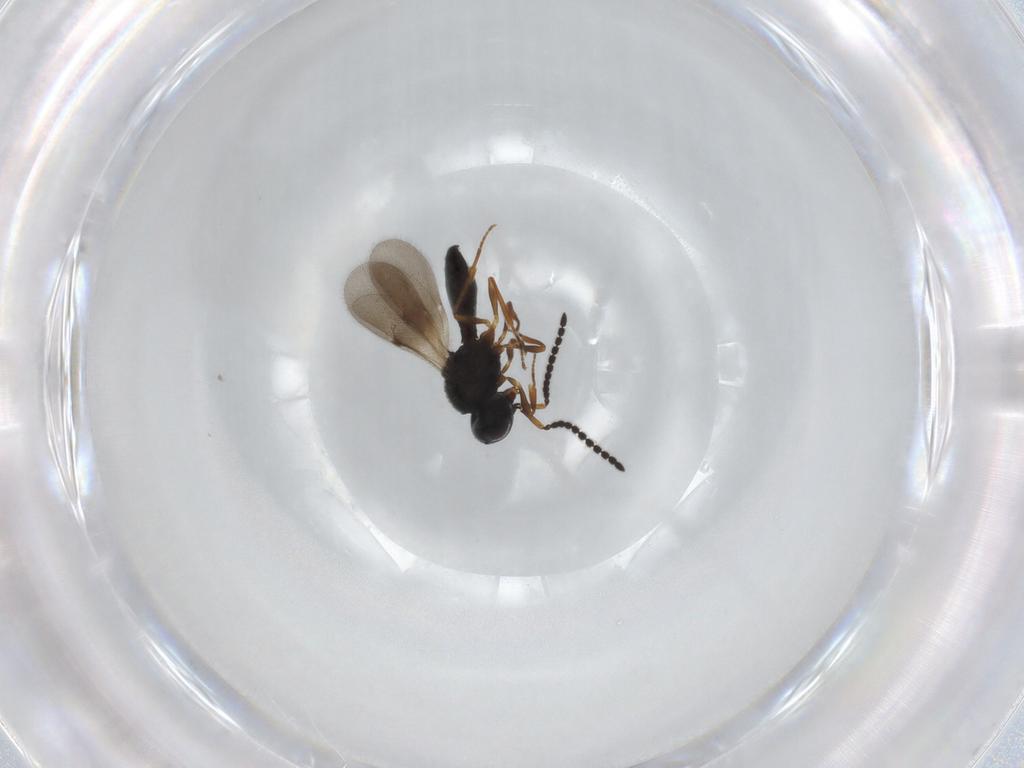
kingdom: Animalia
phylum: Arthropoda
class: Insecta
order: Hymenoptera
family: Scelionidae
